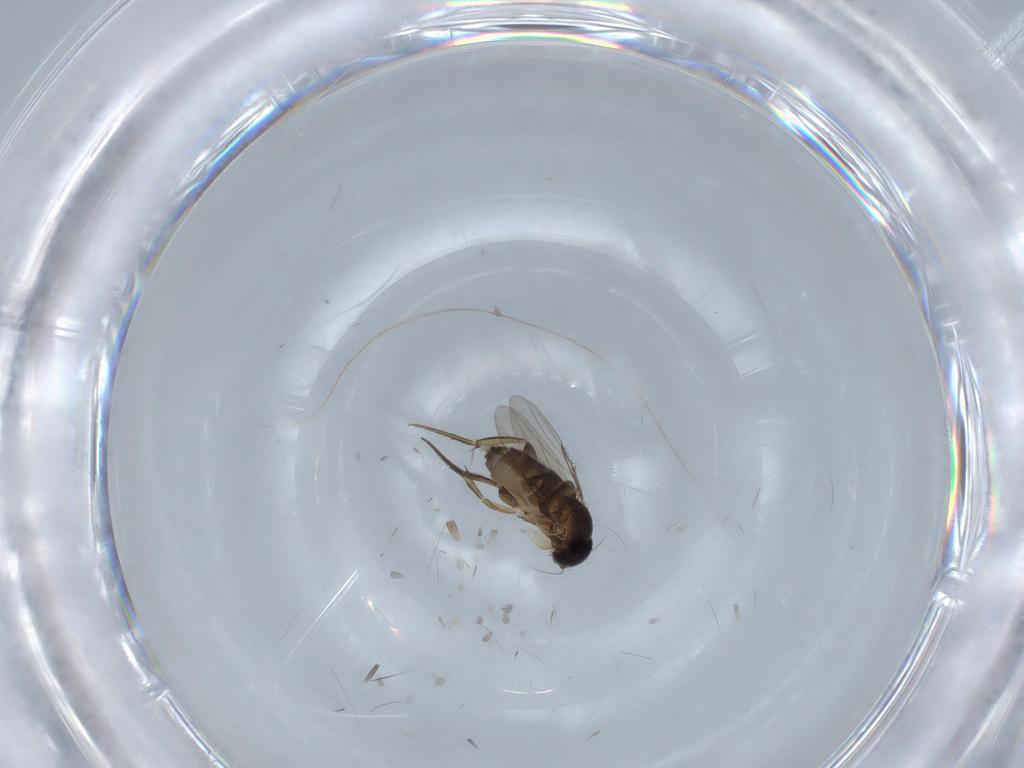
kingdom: Animalia
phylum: Arthropoda
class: Insecta
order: Diptera
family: Phoridae
